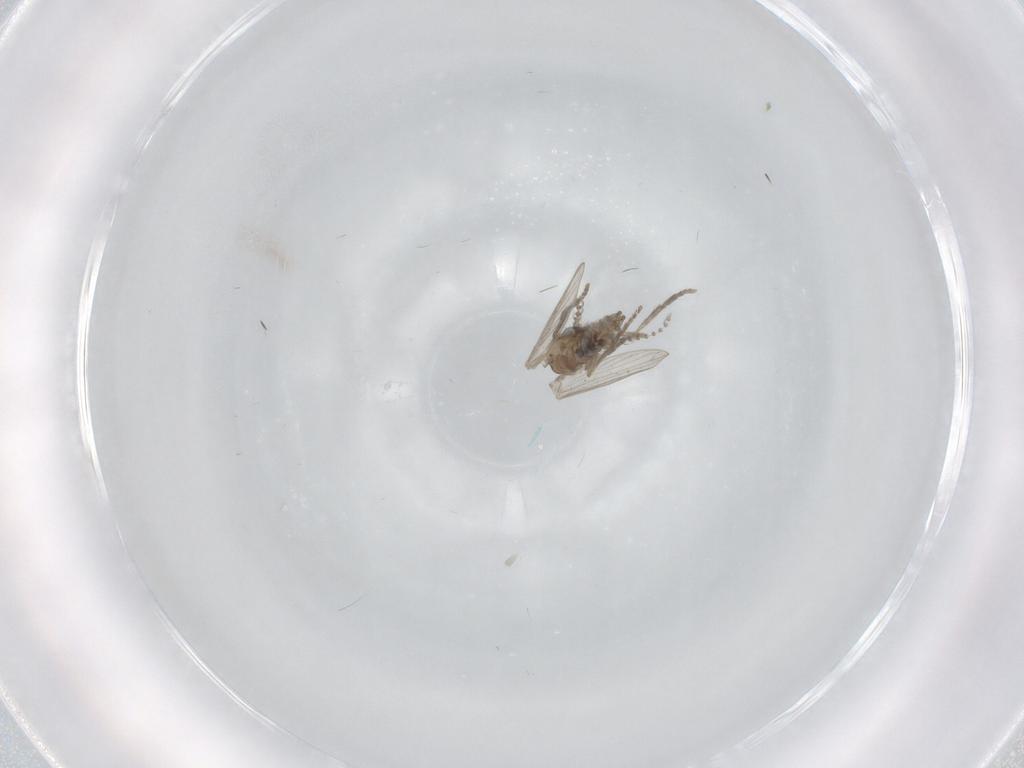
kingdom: Animalia
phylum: Arthropoda
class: Insecta
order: Diptera
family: Psychodidae
